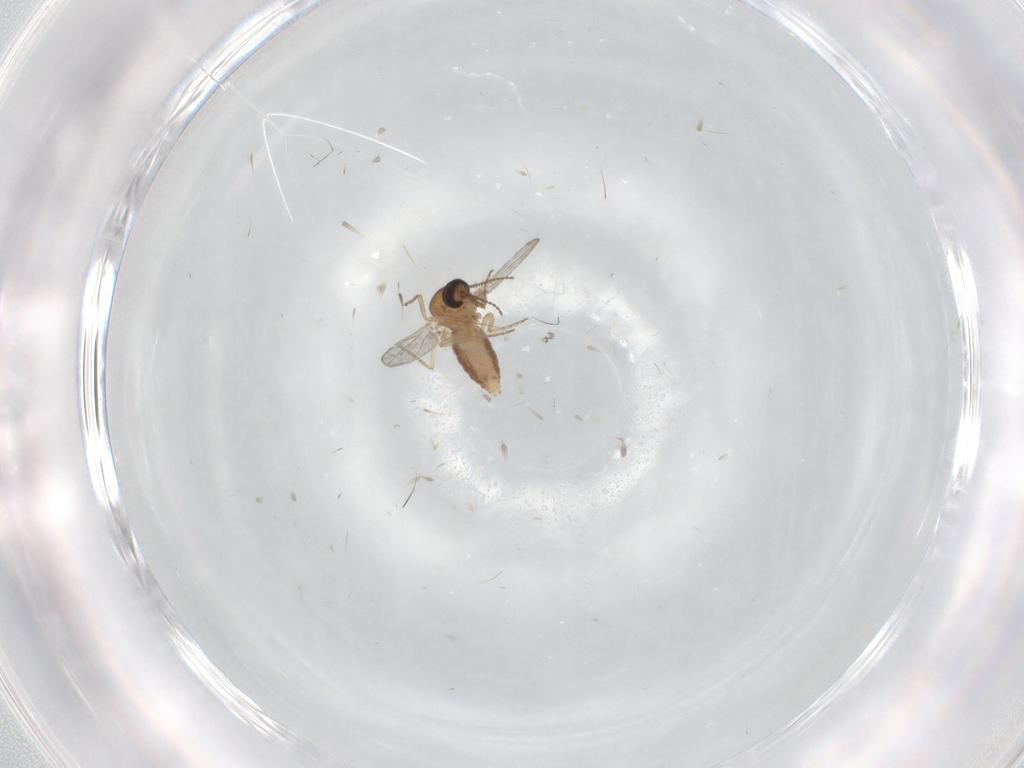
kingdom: Animalia
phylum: Arthropoda
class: Insecta
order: Diptera
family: Ceratopogonidae
